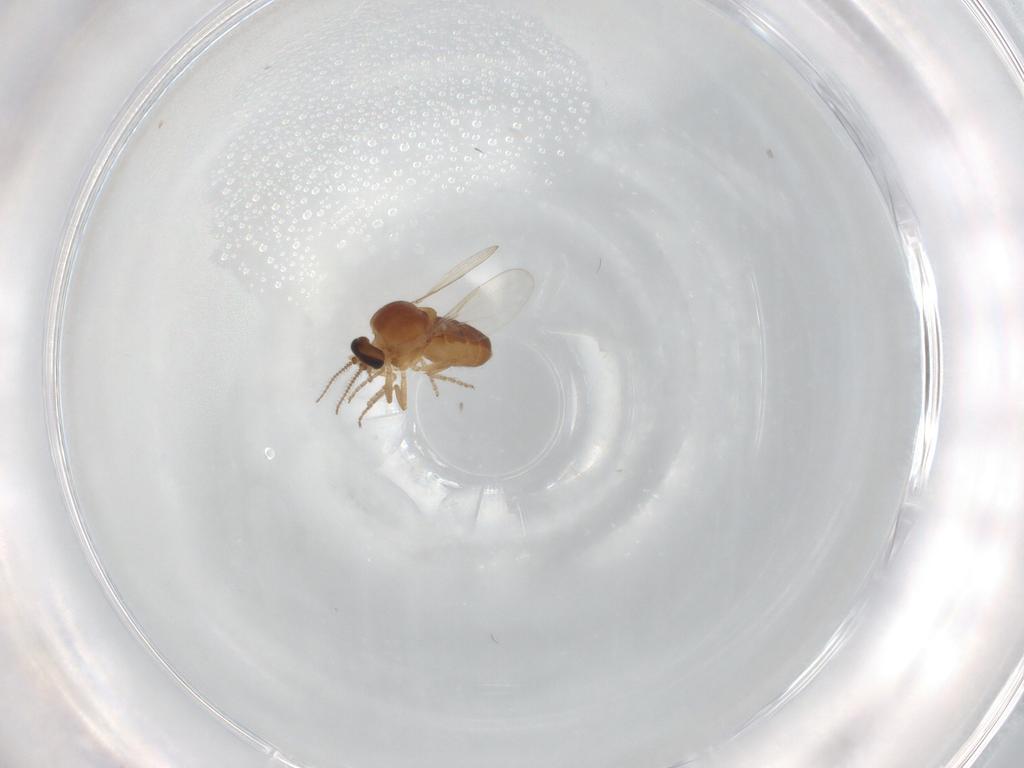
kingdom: Animalia
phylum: Arthropoda
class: Insecta
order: Diptera
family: Ceratopogonidae
